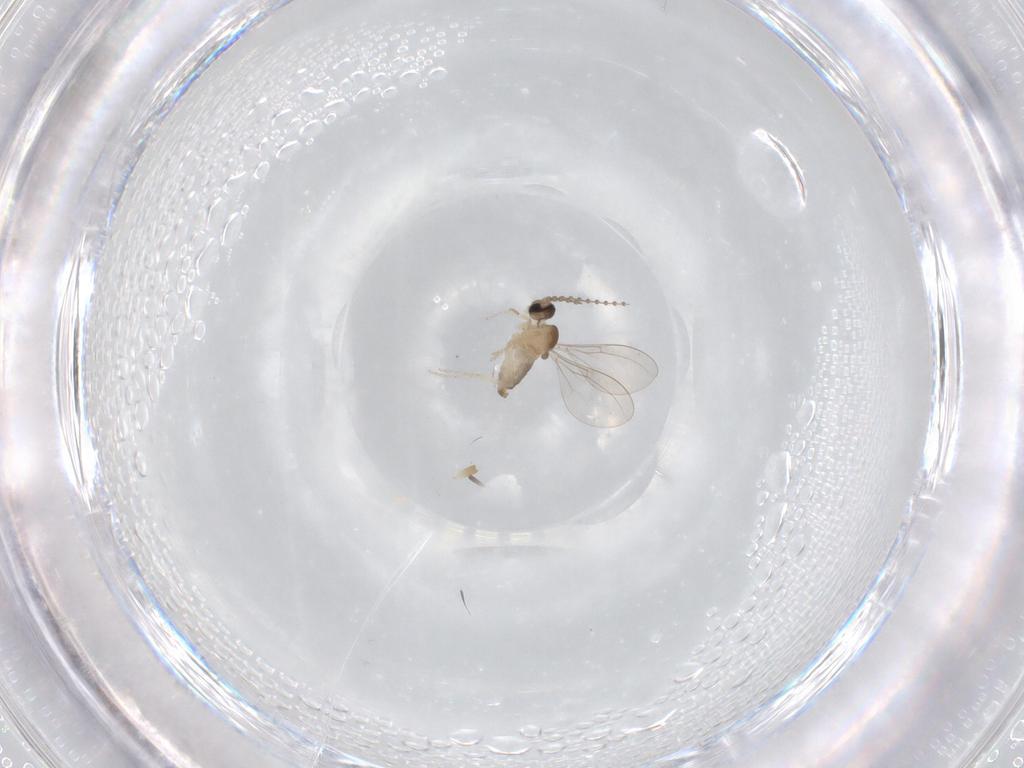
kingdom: Animalia
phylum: Arthropoda
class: Insecta
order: Diptera
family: Cecidomyiidae
